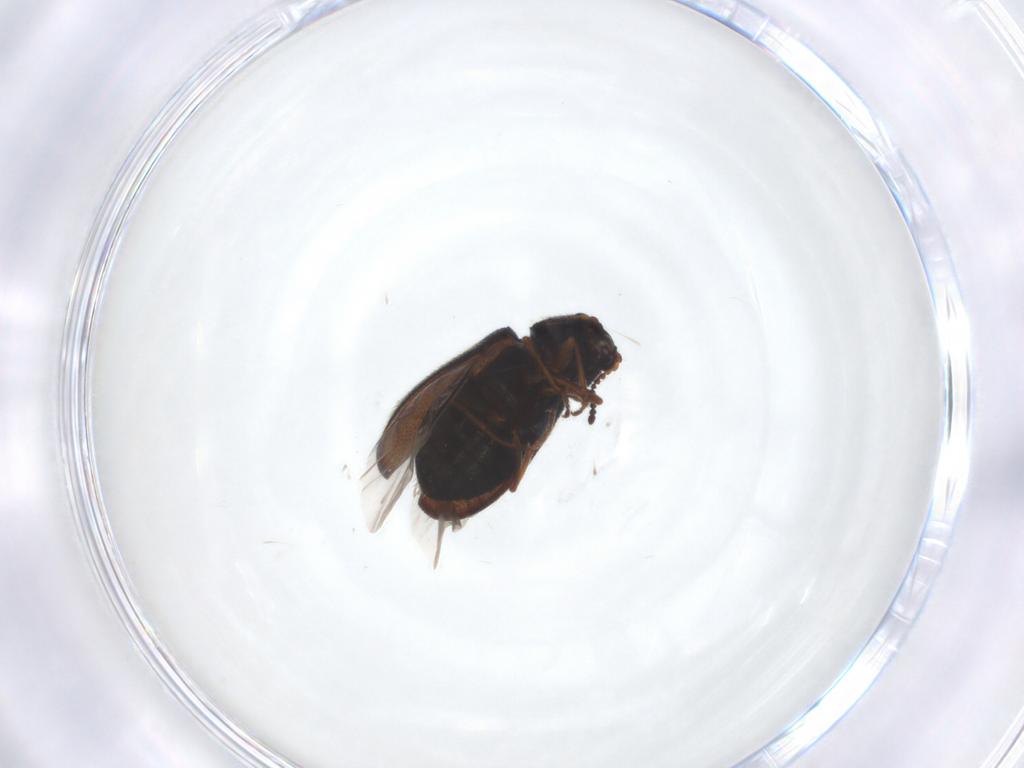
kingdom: Animalia
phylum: Arthropoda
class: Insecta
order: Coleoptera
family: Melyridae
